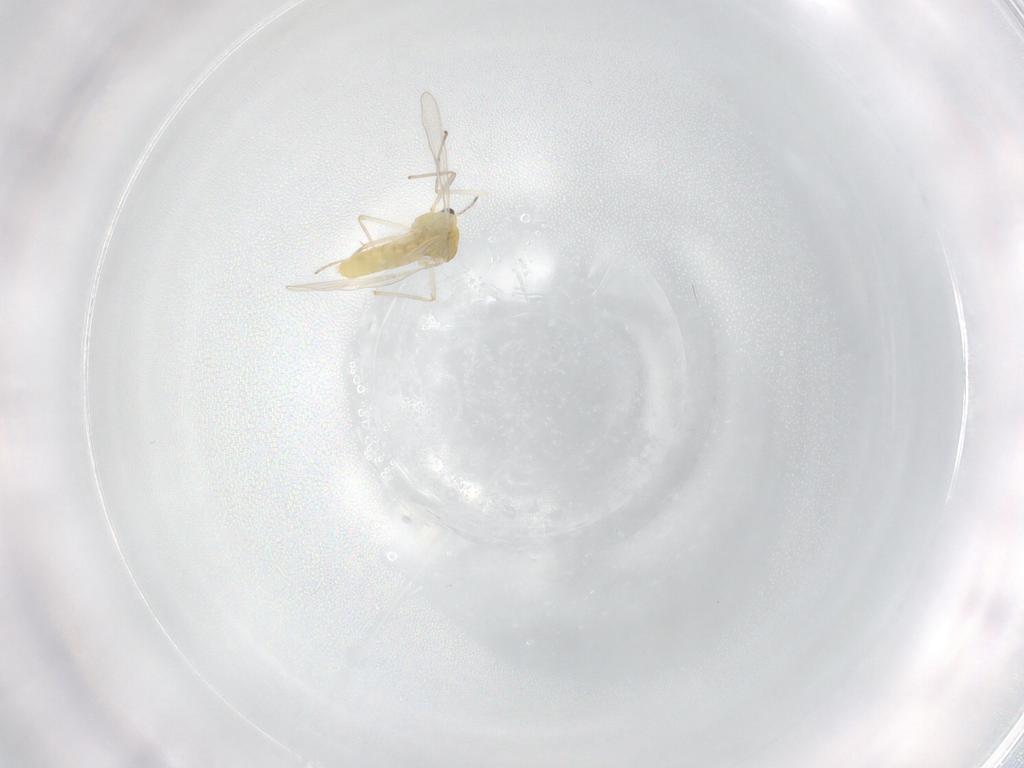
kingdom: Animalia
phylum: Arthropoda
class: Insecta
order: Diptera
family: Chironomidae
